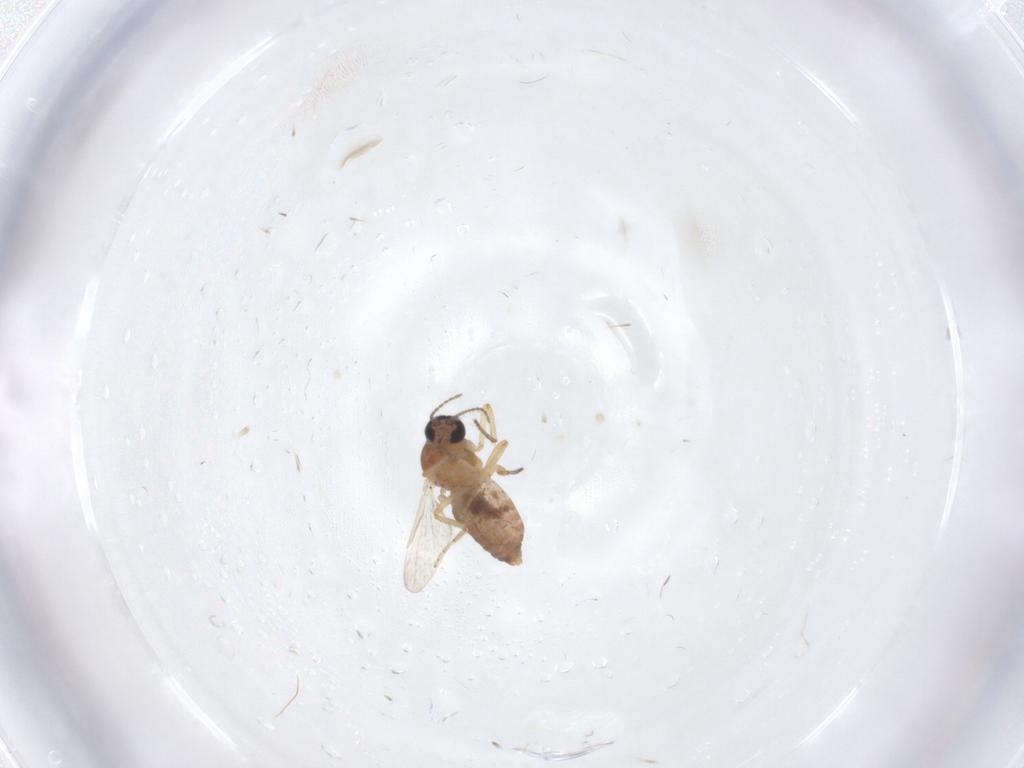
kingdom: Animalia
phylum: Arthropoda
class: Insecta
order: Diptera
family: Ceratopogonidae
